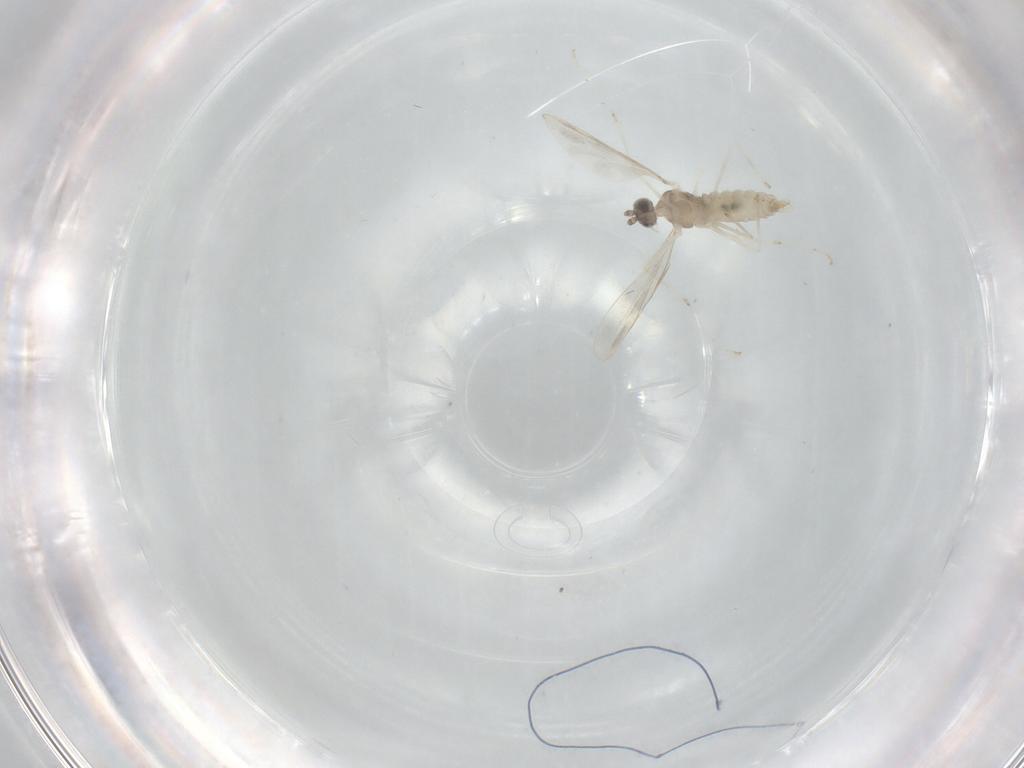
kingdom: Animalia
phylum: Arthropoda
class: Insecta
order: Diptera
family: Cecidomyiidae
